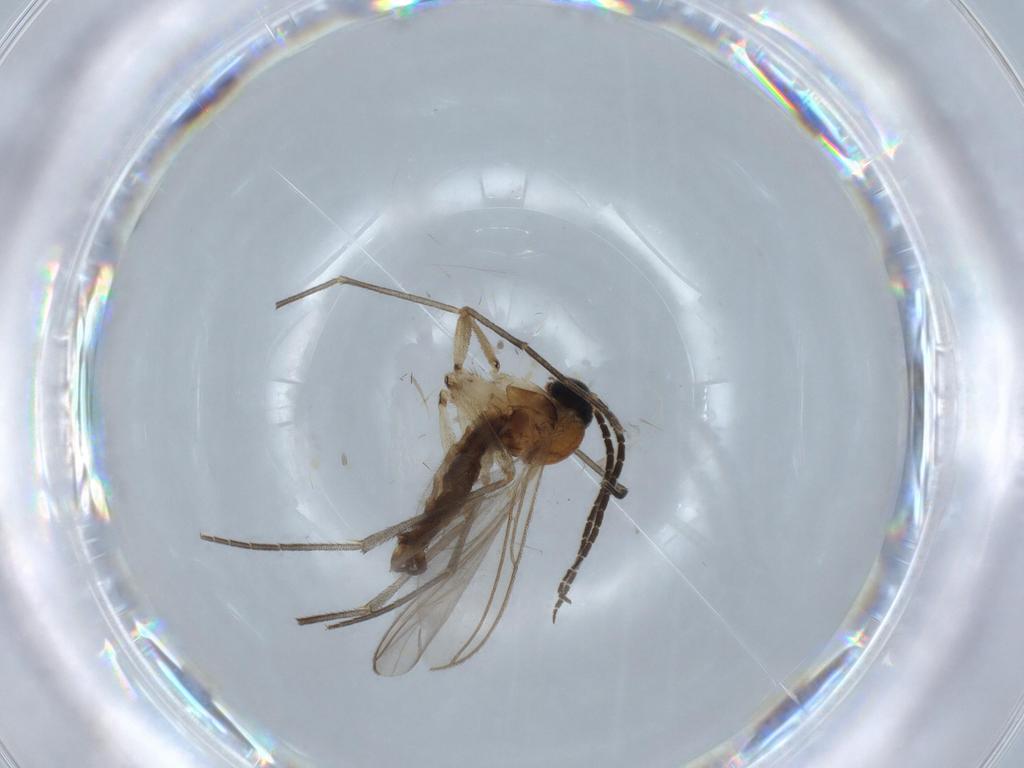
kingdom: Animalia
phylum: Arthropoda
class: Insecta
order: Diptera
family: Sciaridae
